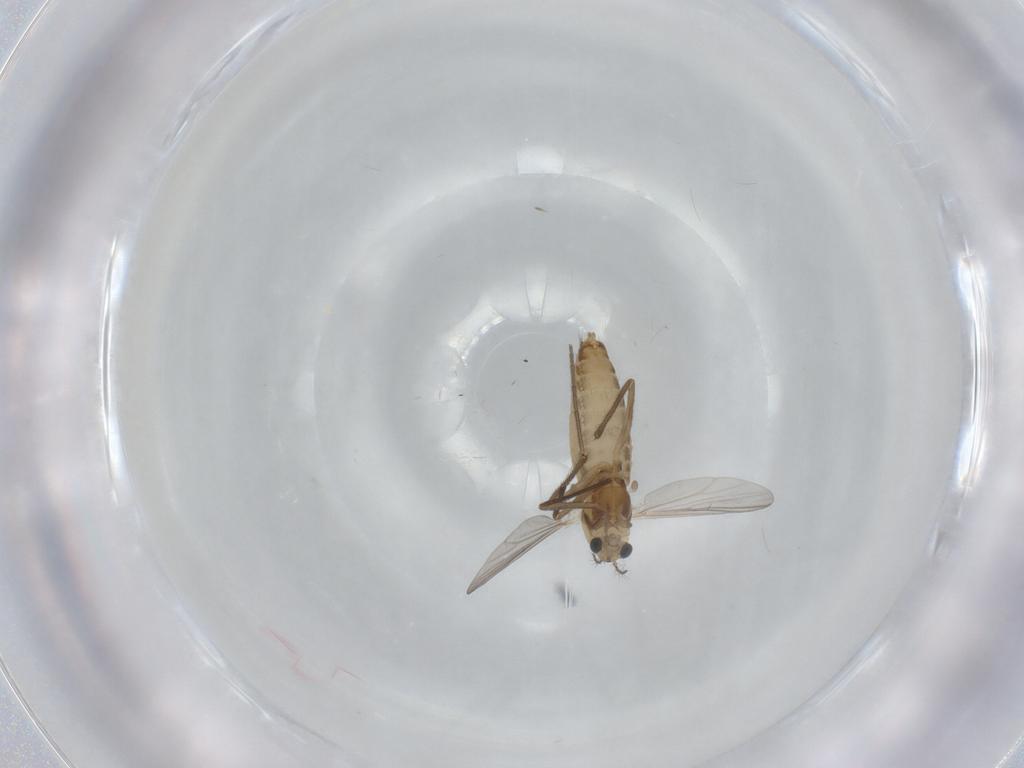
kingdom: Animalia
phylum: Arthropoda
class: Insecta
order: Diptera
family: Chironomidae
